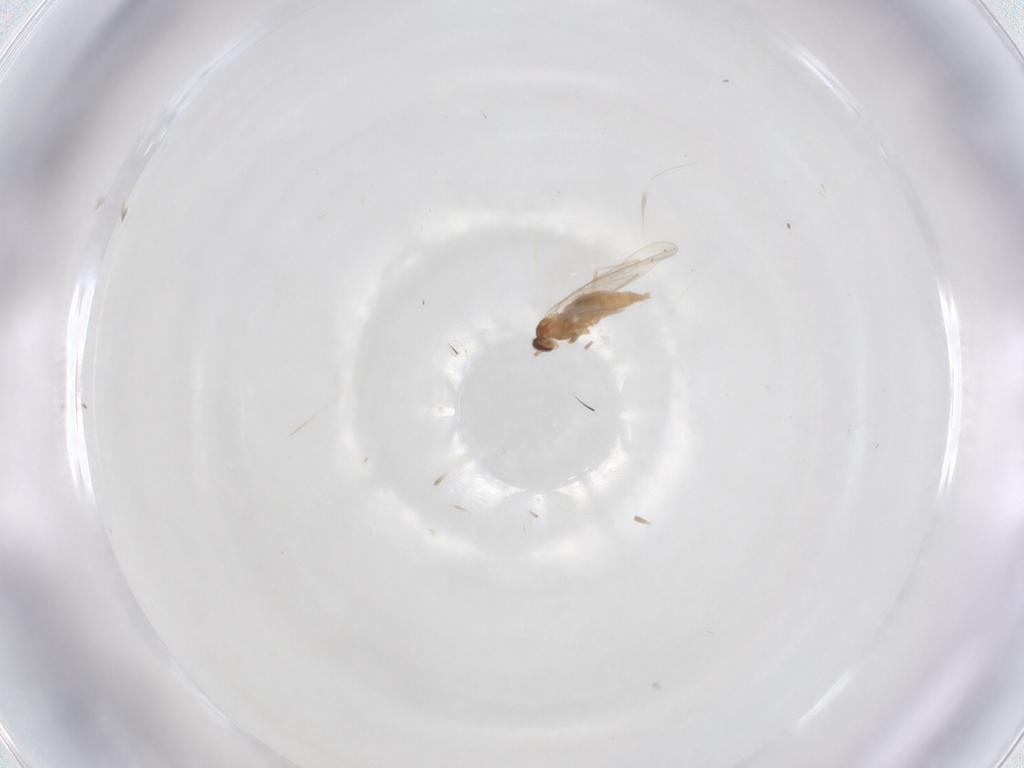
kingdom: Animalia
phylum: Arthropoda
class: Insecta
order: Diptera
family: Cecidomyiidae
